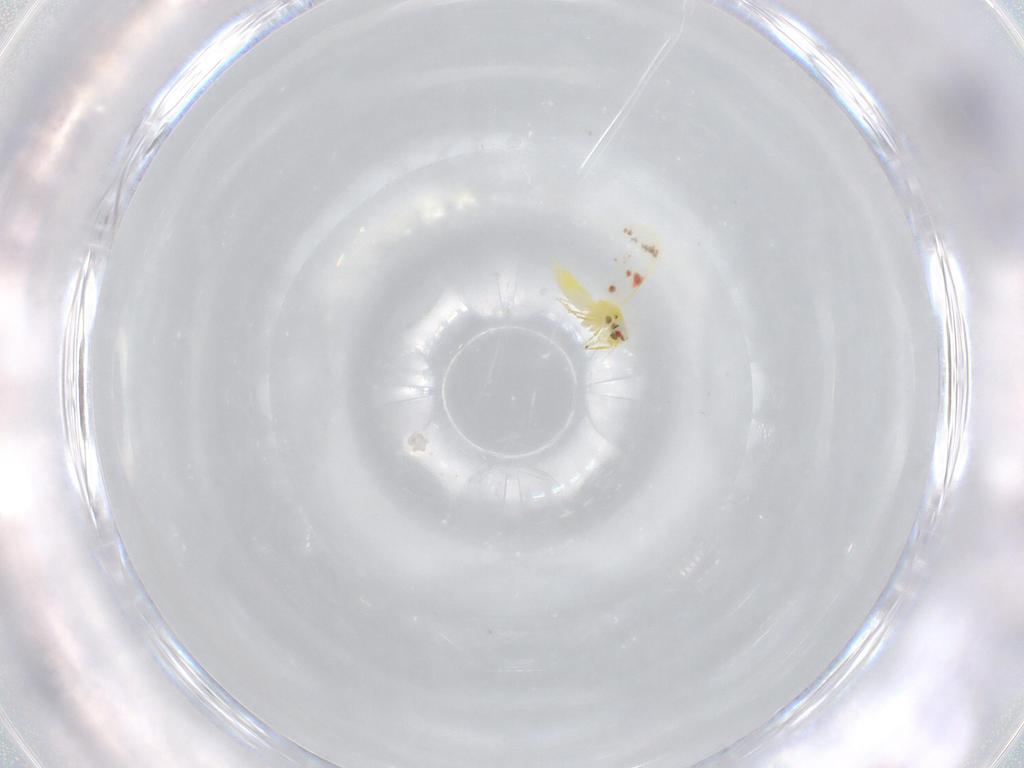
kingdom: Animalia
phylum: Arthropoda
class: Insecta
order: Hemiptera
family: Aleyrodidae
